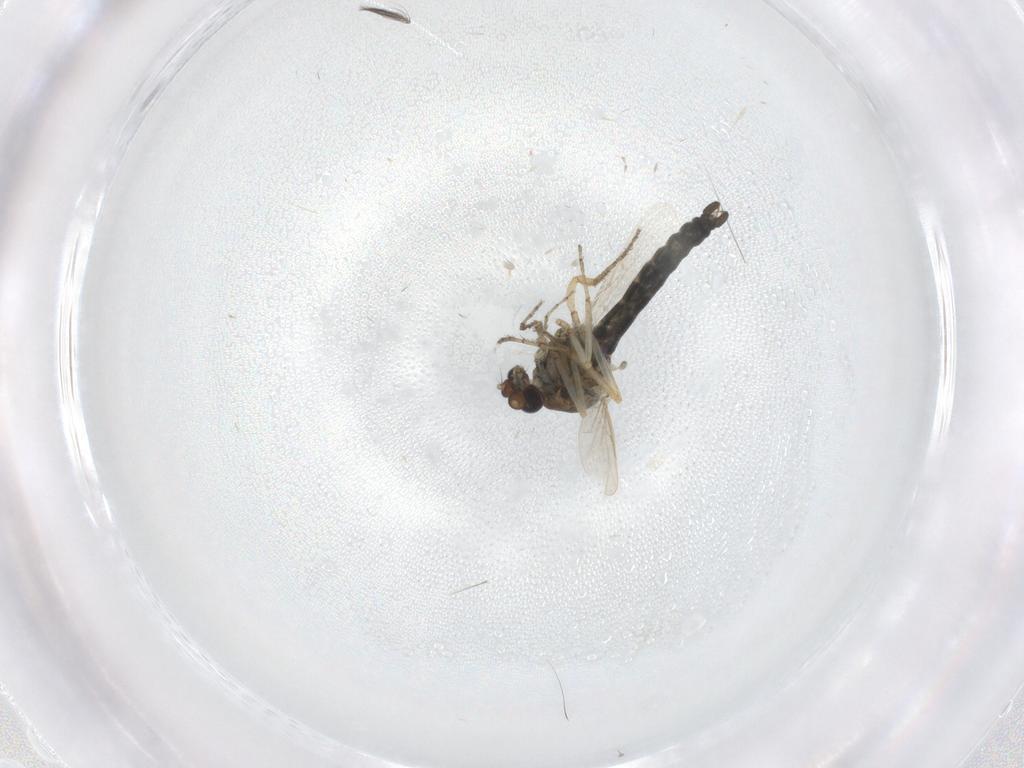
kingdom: Animalia
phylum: Arthropoda
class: Insecta
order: Diptera
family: Ceratopogonidae
